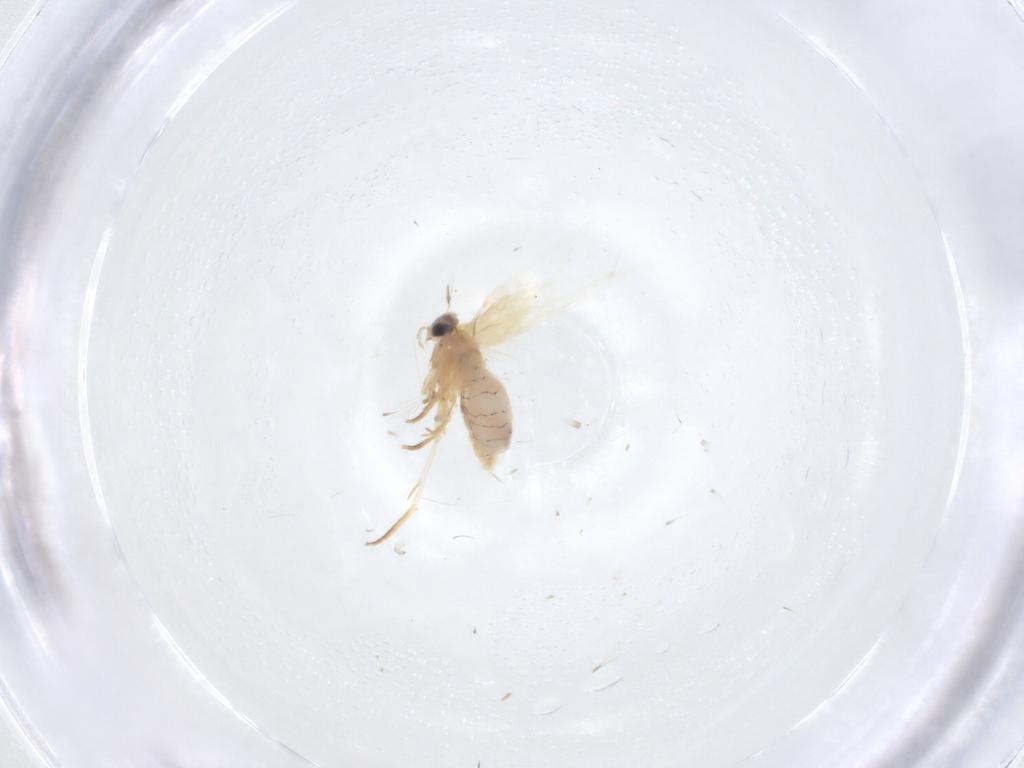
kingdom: Animalia
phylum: Arthropoda
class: Insecta
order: Lepidoptera
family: Nepticulidae
